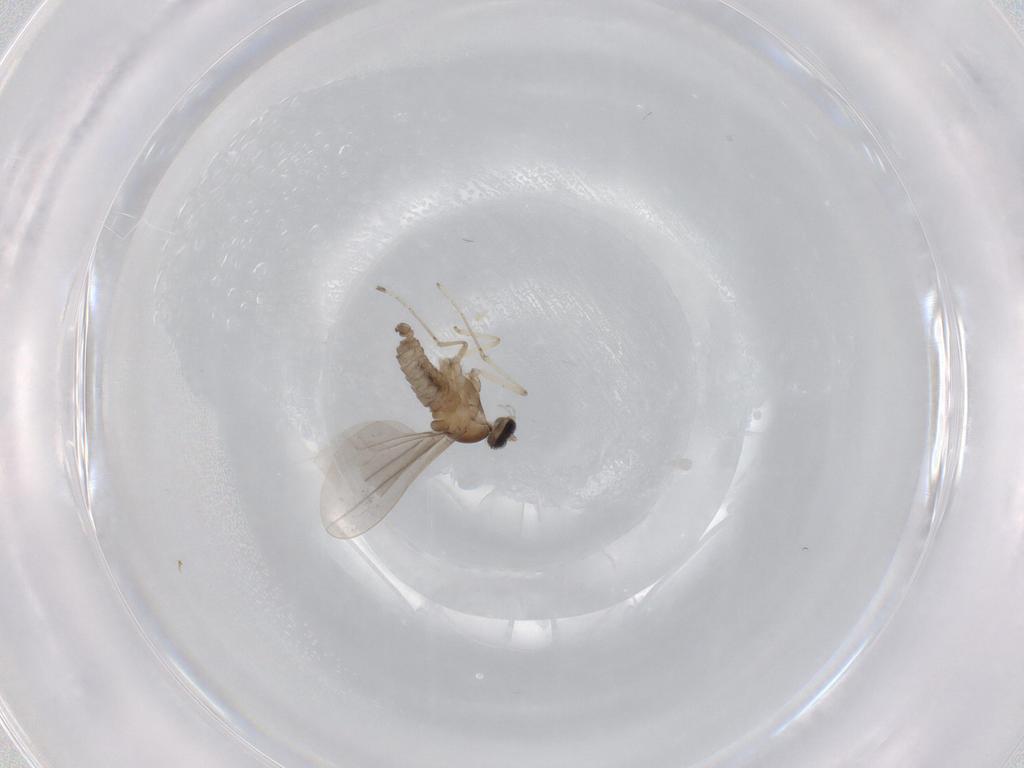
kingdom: Animalia
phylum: Arthropoda
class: Insecta
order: Diptera
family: Cecidomyiidae
